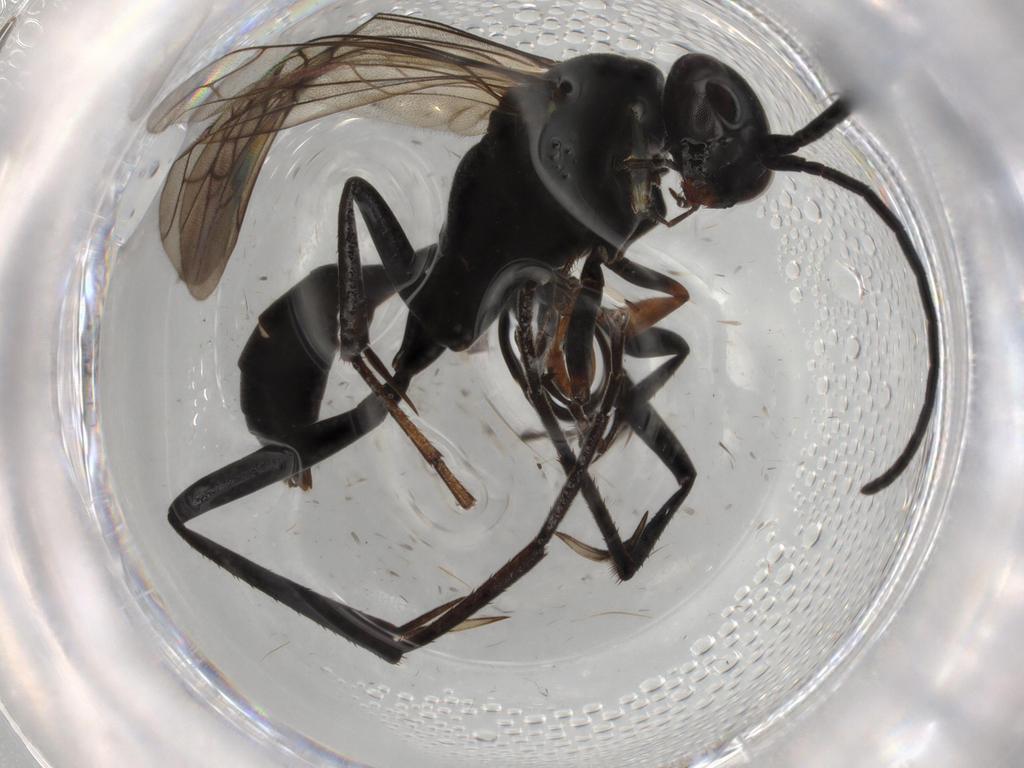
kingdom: Animalia
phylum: Arthropoda
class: Insecta
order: Hymenoptera
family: Pompilidae
